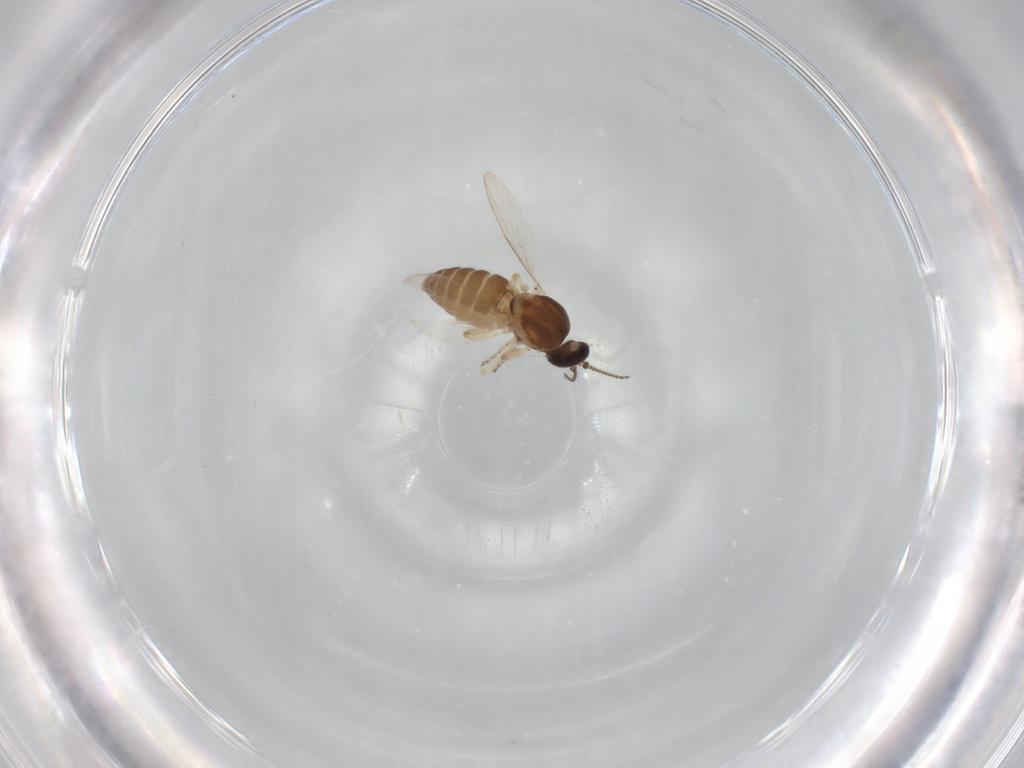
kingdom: Animalia
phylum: Arthropoda
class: Insecta
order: Diptera
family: Ceratopogonidae
